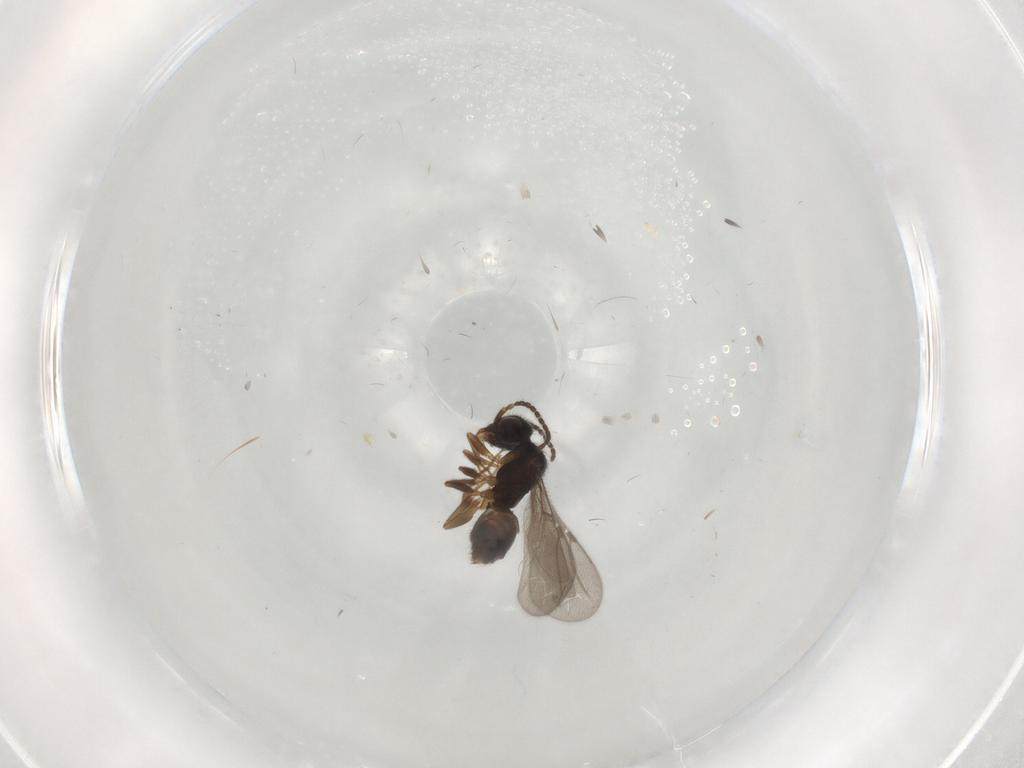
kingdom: Animalia
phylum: Arthropoda
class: Insecta
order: Hymenoptera
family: Bethylidae
